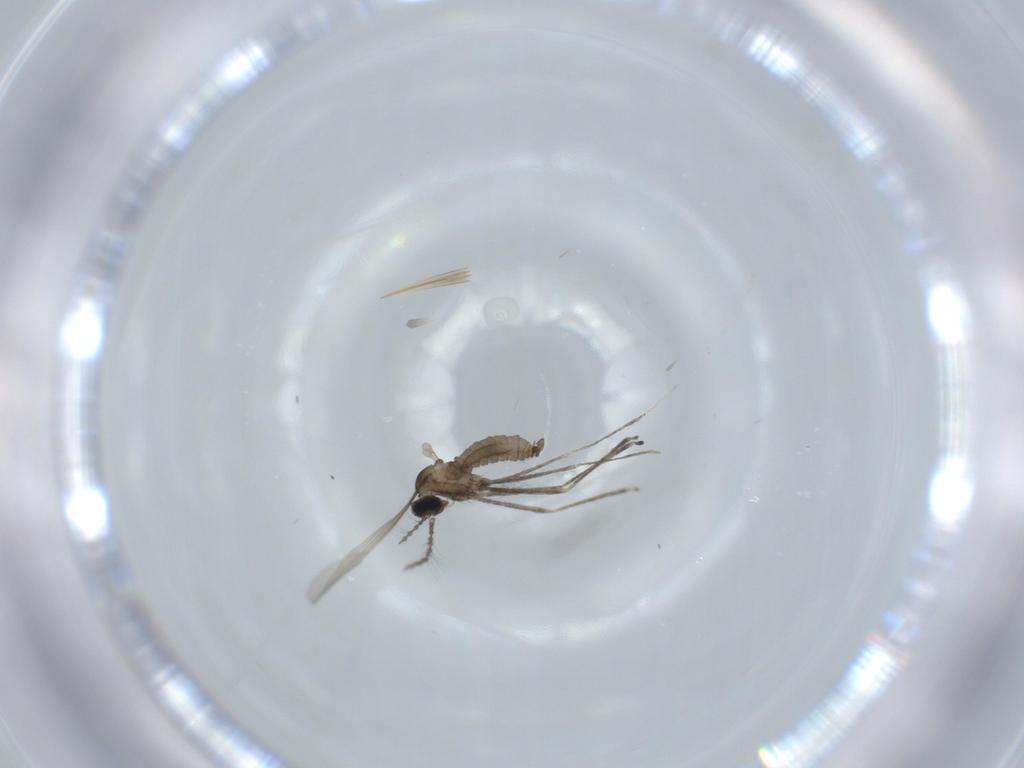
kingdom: Animalia
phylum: Arthropoda
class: Insecta
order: Diptera
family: Cecidomyiidae
